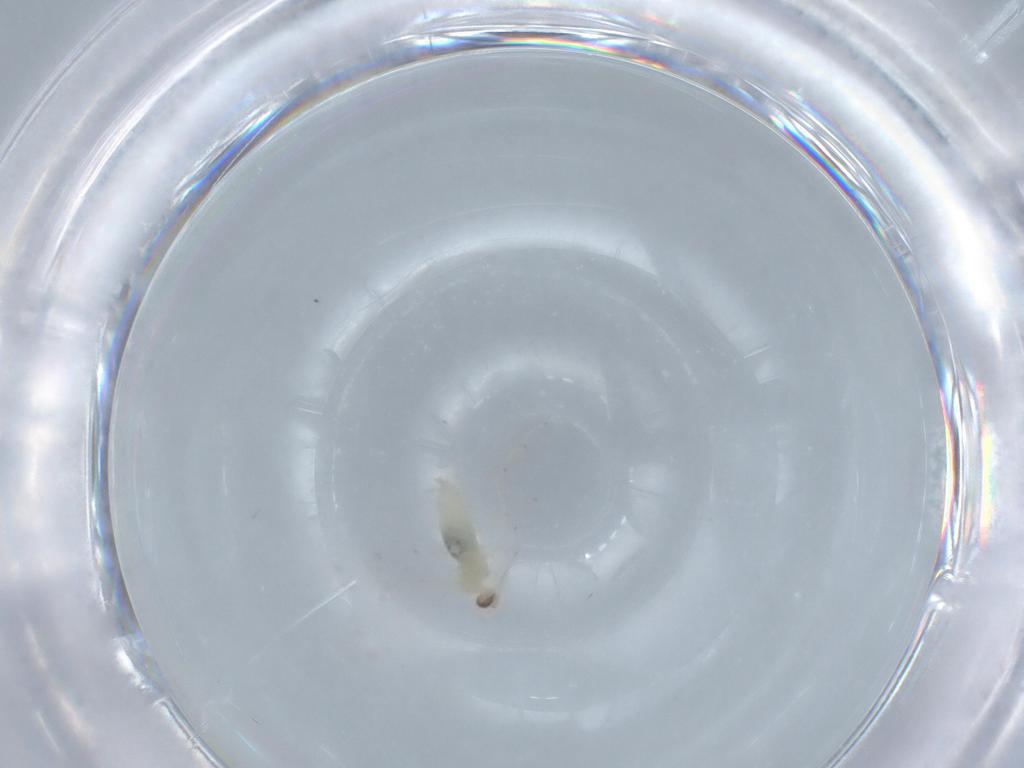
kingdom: Animalia
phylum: Arthropoda
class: Insecta
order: Diptera
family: Cecidomyiidae
